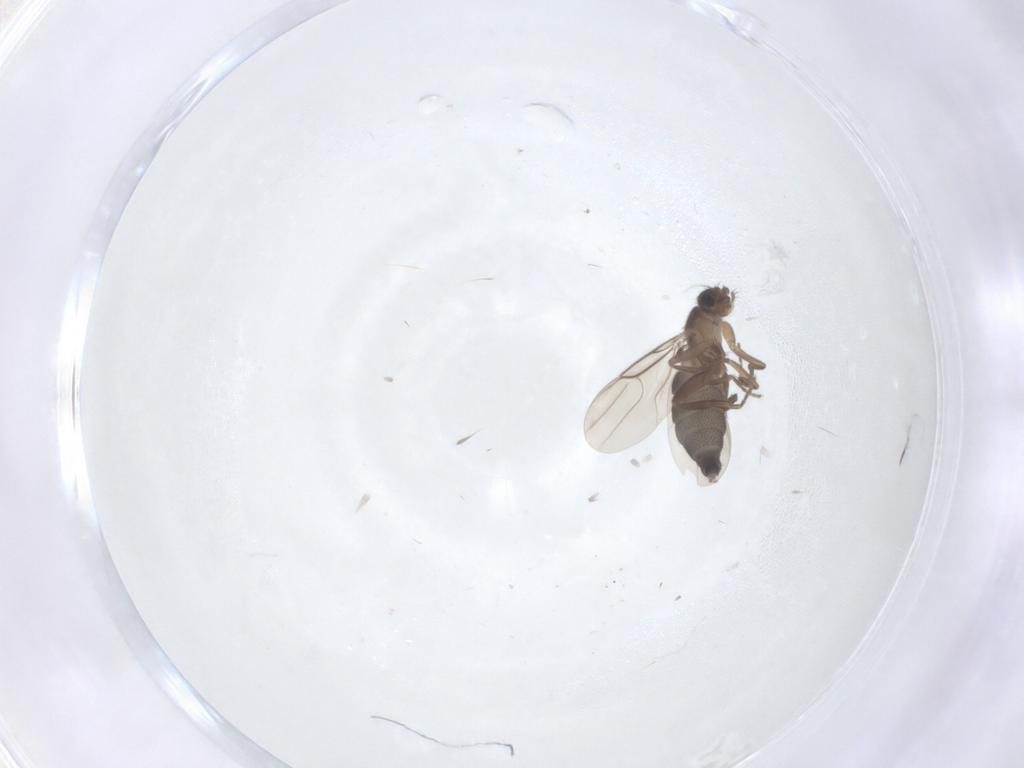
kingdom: Animalia
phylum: Arthropoda
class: Insecta
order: Diptera
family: Phoridae
